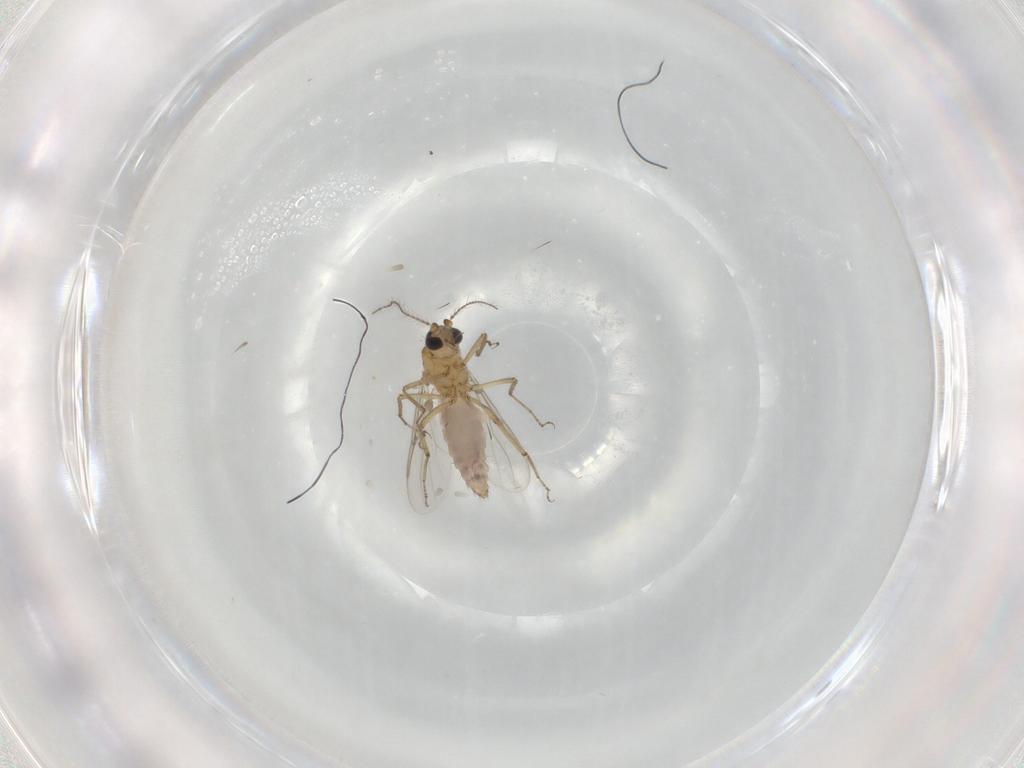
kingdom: Animalia
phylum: Arthropoda
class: Insecta
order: Diptera
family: Ceratopogonidae
